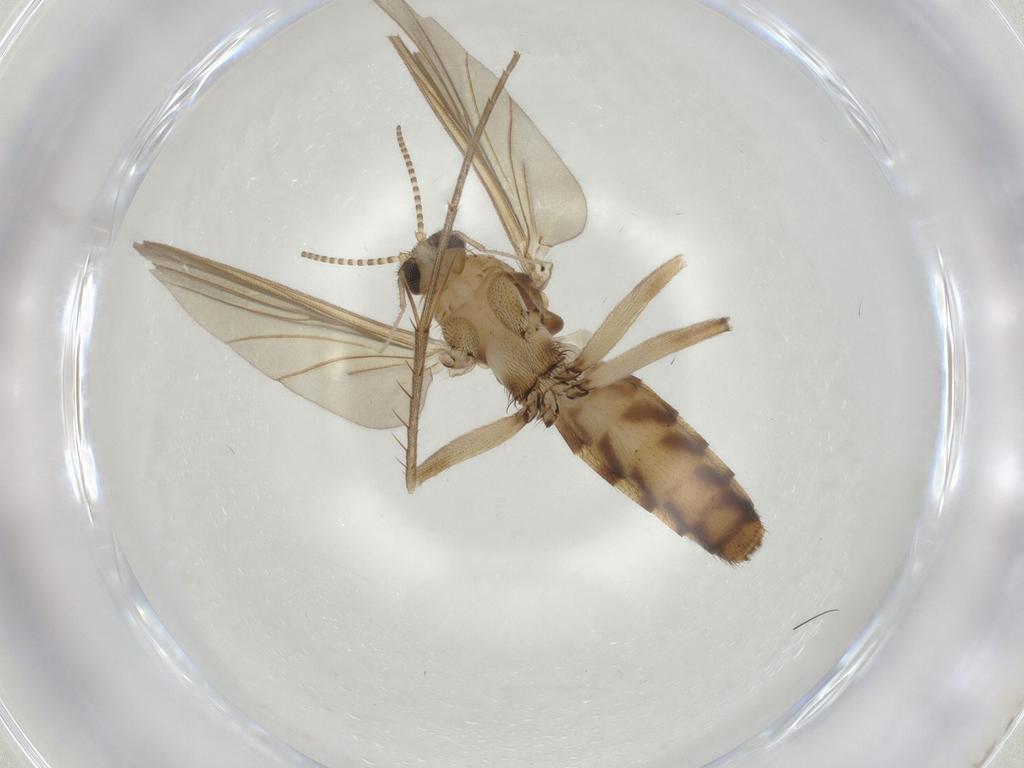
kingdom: Animalia
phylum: Arthropoda
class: Insecta
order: Diptera
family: Mycetophilidae
